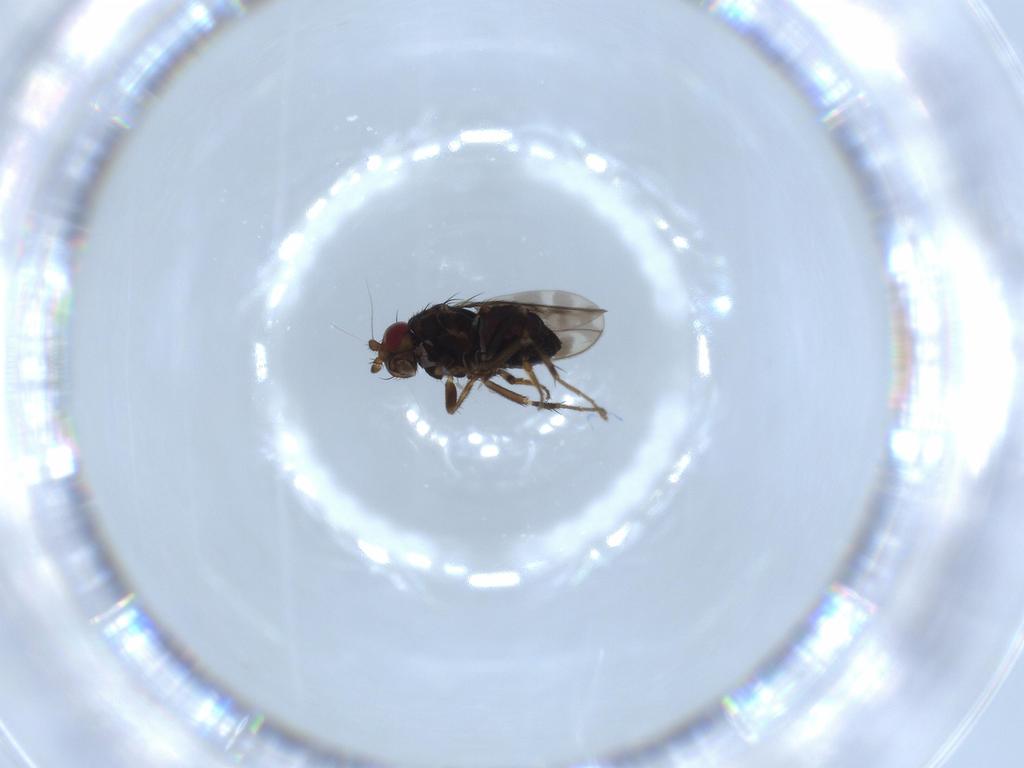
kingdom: Animalia
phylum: Arthropoda
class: Insecta
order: Diptera
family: Sphaeroceridae
